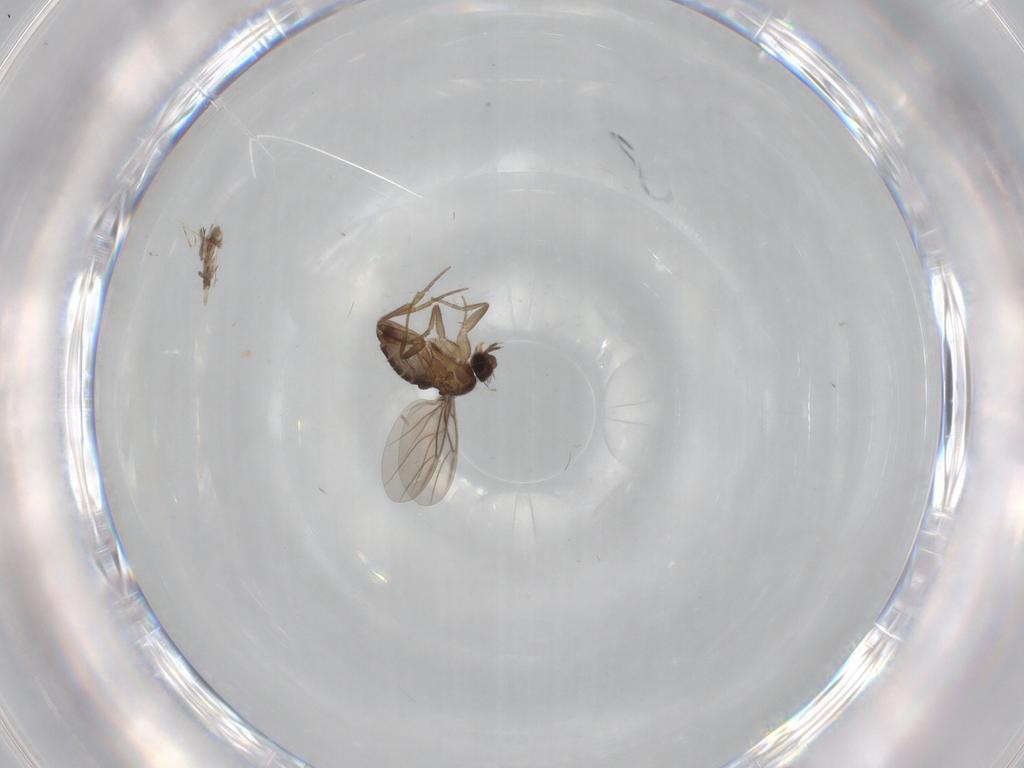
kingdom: Animalia
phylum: Arthropoda
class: Insecta
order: Diptera
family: Phoridae
